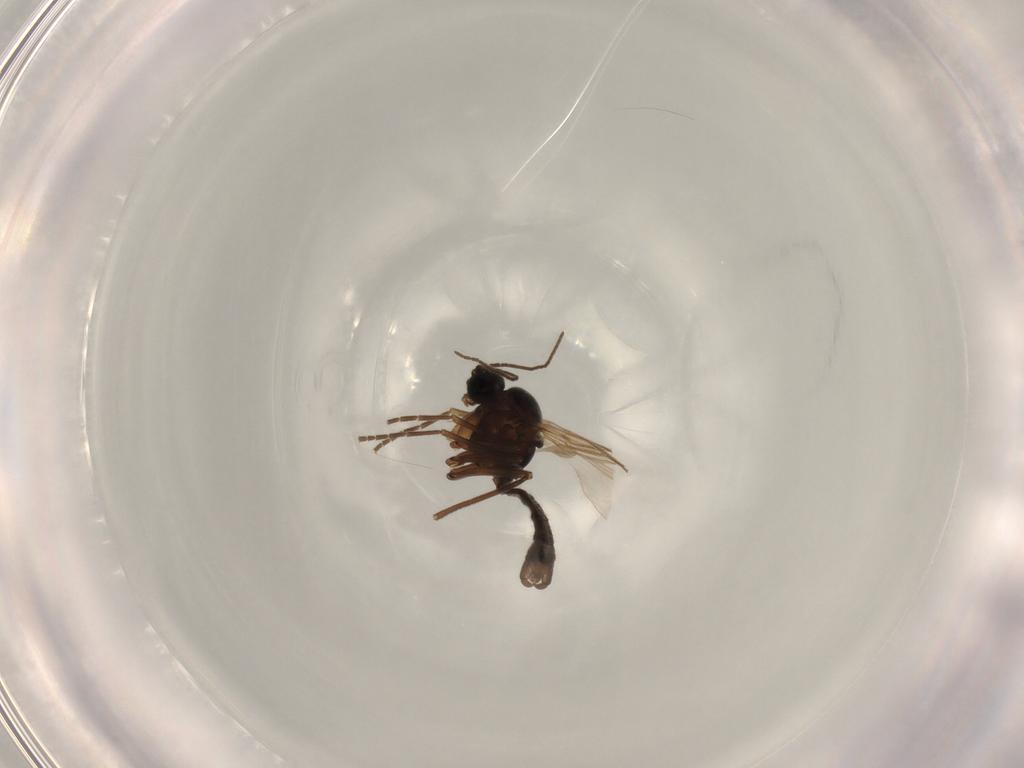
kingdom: Animalia
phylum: Arthropoda
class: Insecta
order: Diptera
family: Sciaridae
